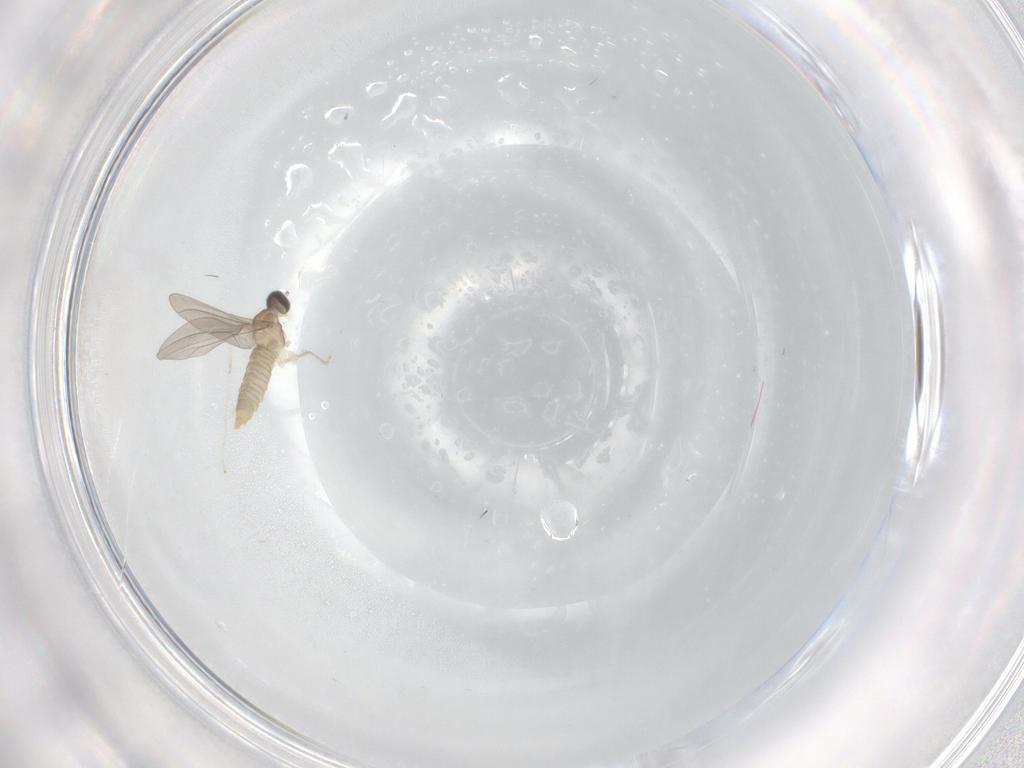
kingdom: Animalia
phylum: Arthropoda
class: Insecta
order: Diptera
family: Cecidomyiidae
